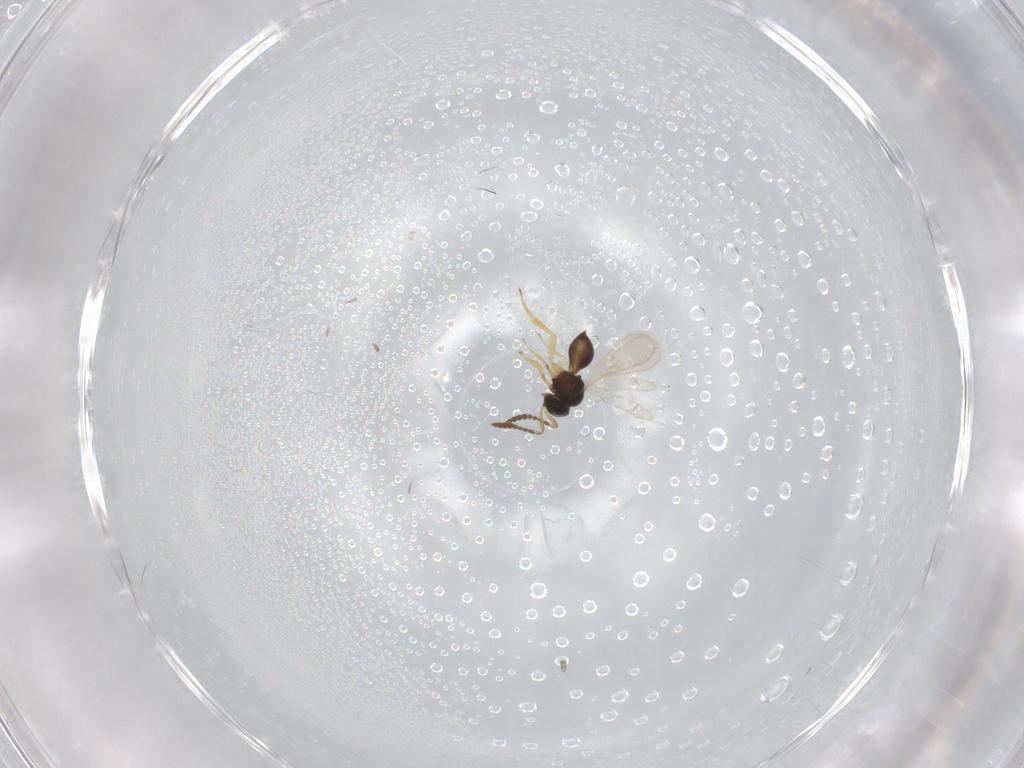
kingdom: Animalia
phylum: Arthropoda
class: Insecta
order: Hymenoptera
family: Scelionidae
